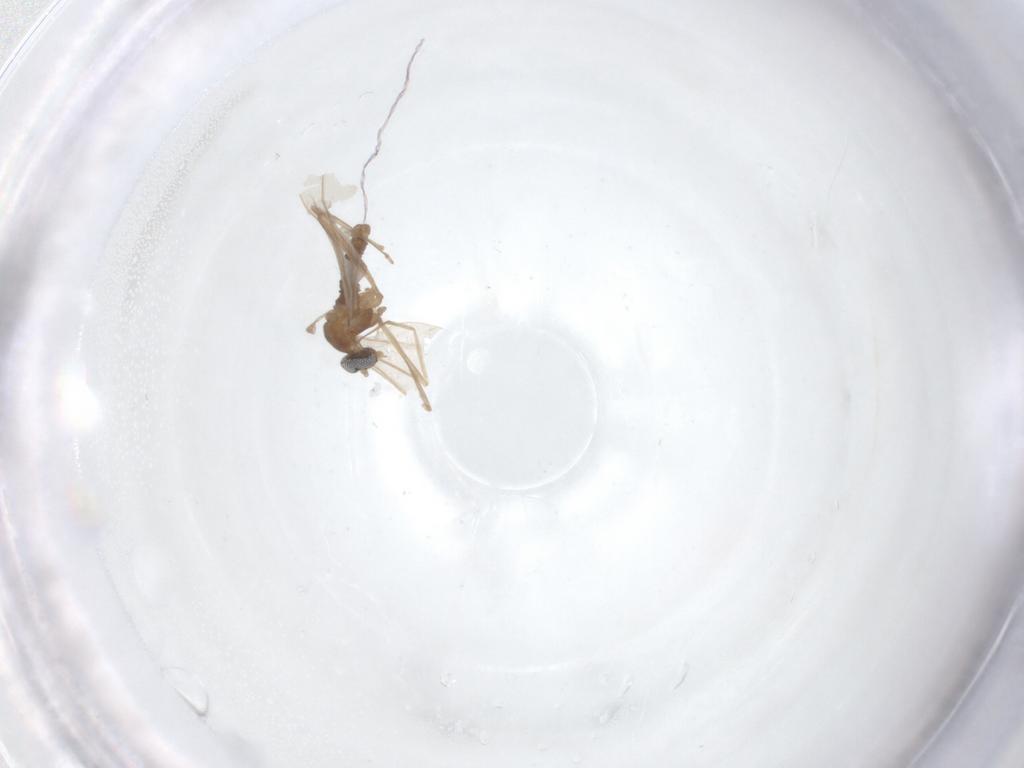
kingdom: Animalia
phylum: Arthropoda
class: Insecta
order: Diptera
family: Cecidomyiidae
